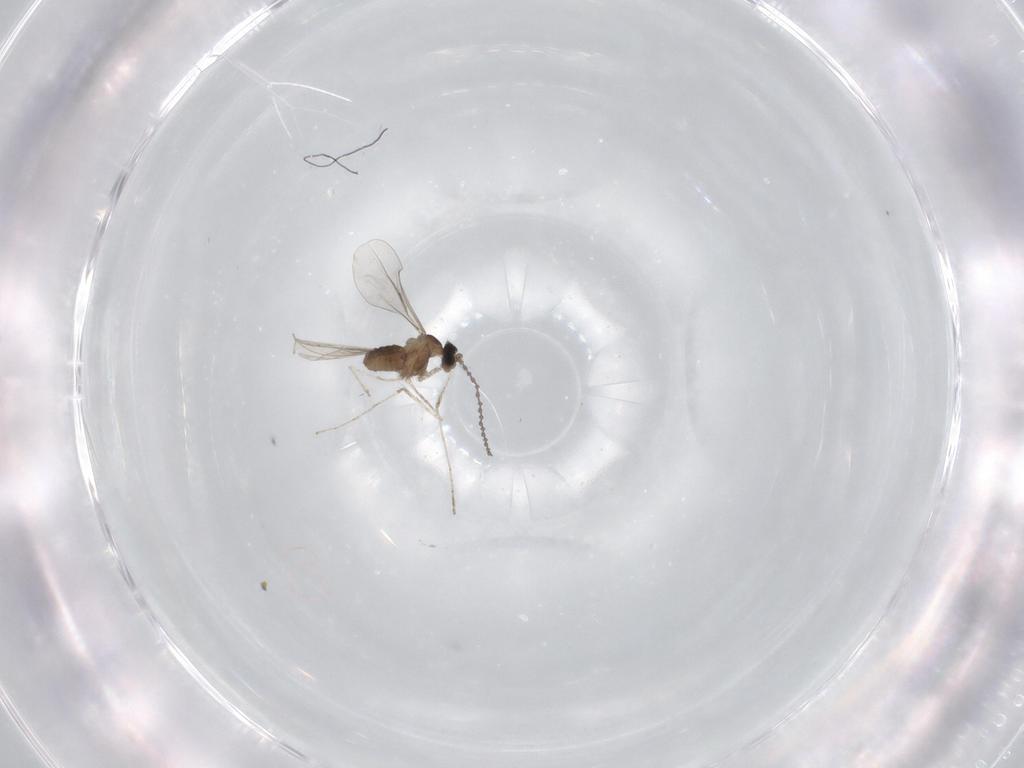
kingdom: Animalia
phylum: Arthropoda
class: Insecta
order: Diptera
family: Cecidomyiidae
